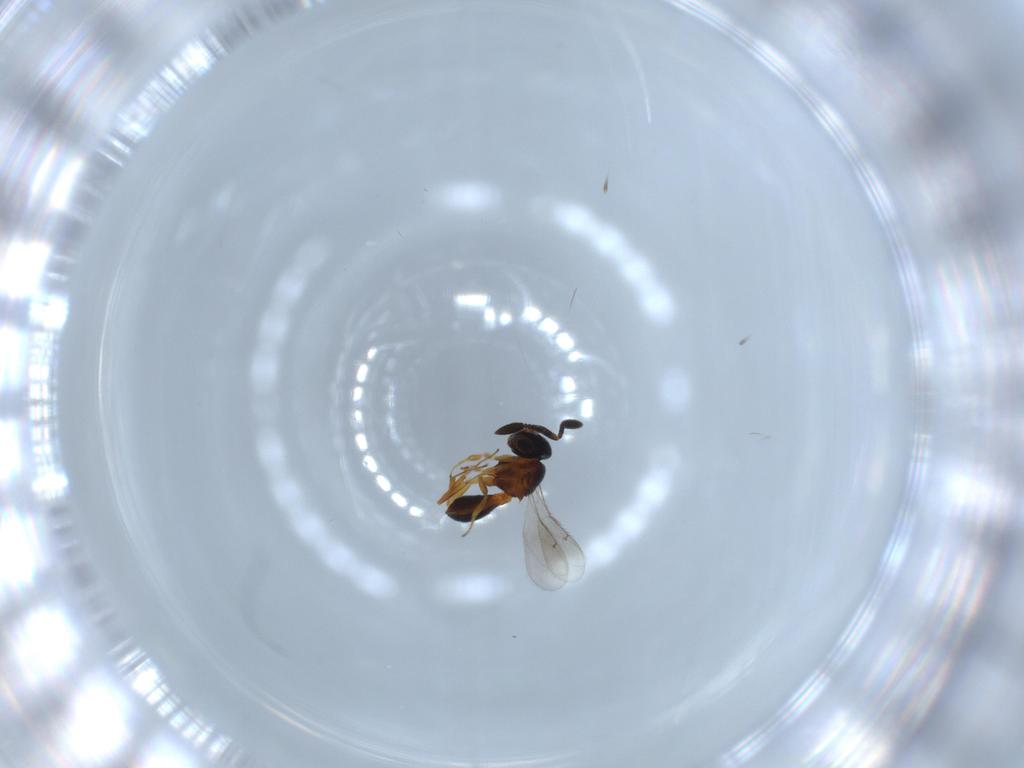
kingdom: Animalia
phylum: Arthropoda
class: Insecta
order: Hymenoptera
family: Scelionidae
